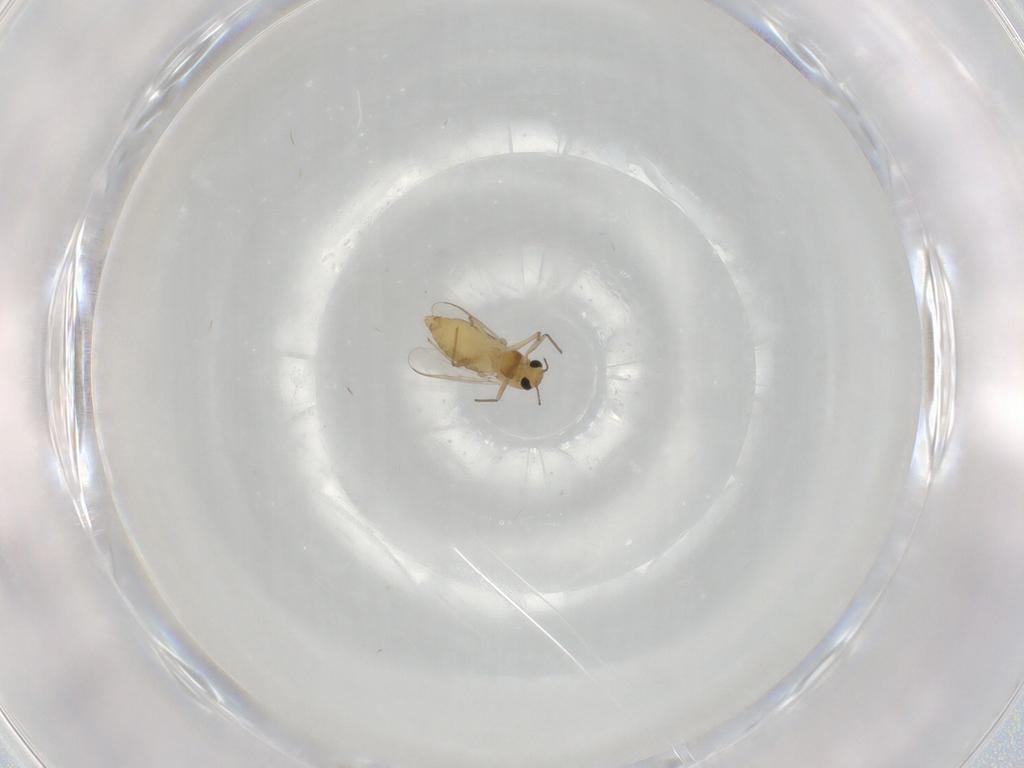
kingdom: Animalia
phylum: Arthropoda
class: Insecta
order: Diptera
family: Chironomidae
